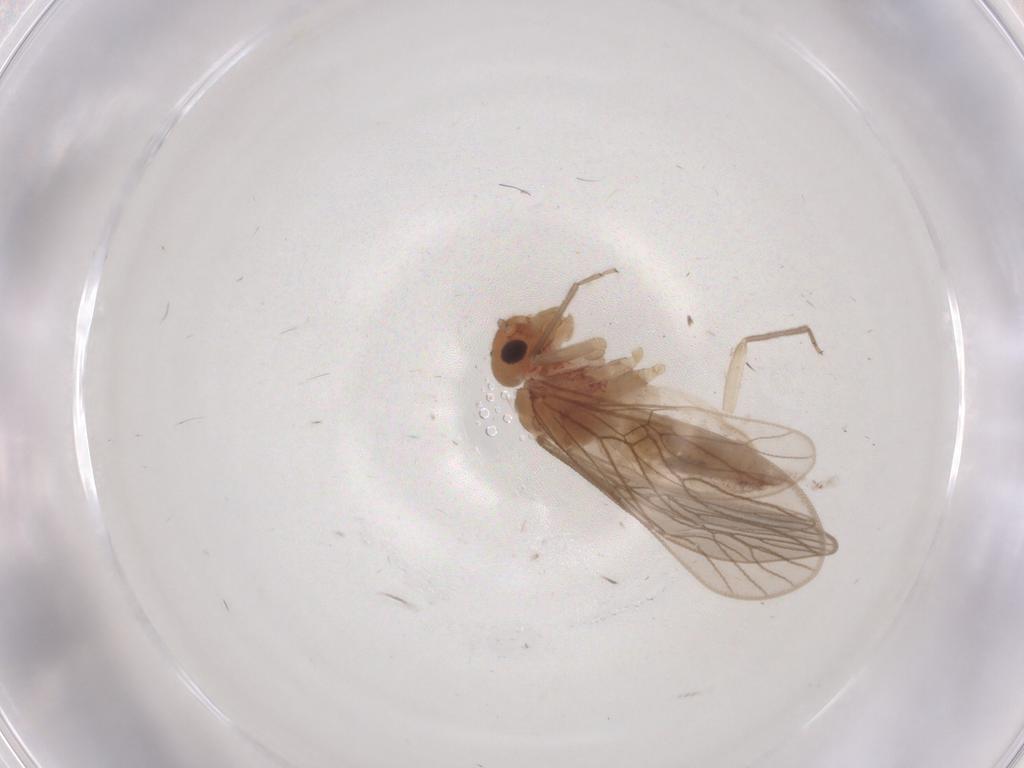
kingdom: Animalia
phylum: Arthropoda
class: Insecta
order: Psocodea
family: Epipsocidae
